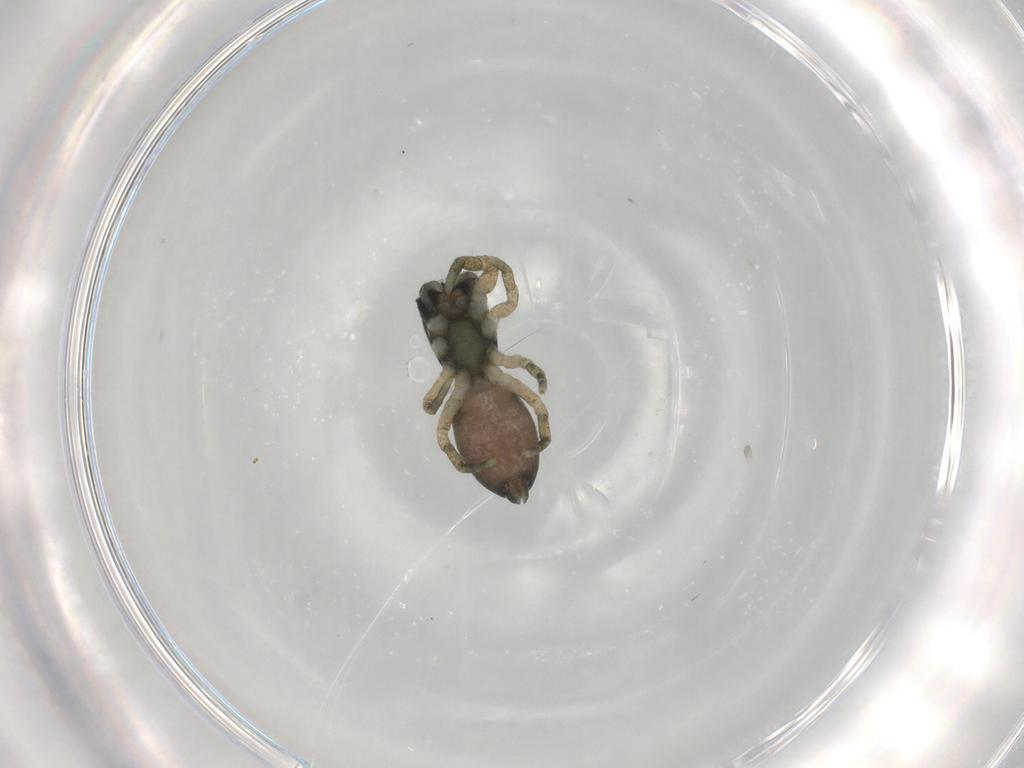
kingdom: Animalia
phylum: Arthropoda
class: Arachnida
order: Araneae
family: Salticidae
